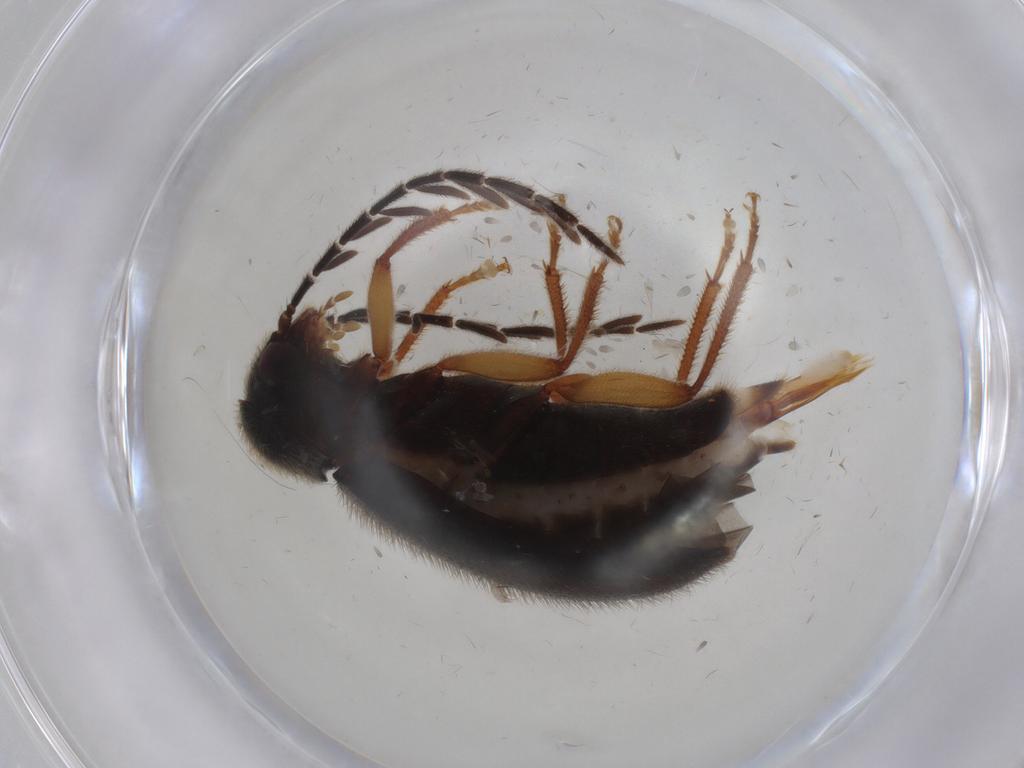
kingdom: Animalia
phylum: Arthropoda
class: Insecta
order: Coleoptera
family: Ptilodactylidae
